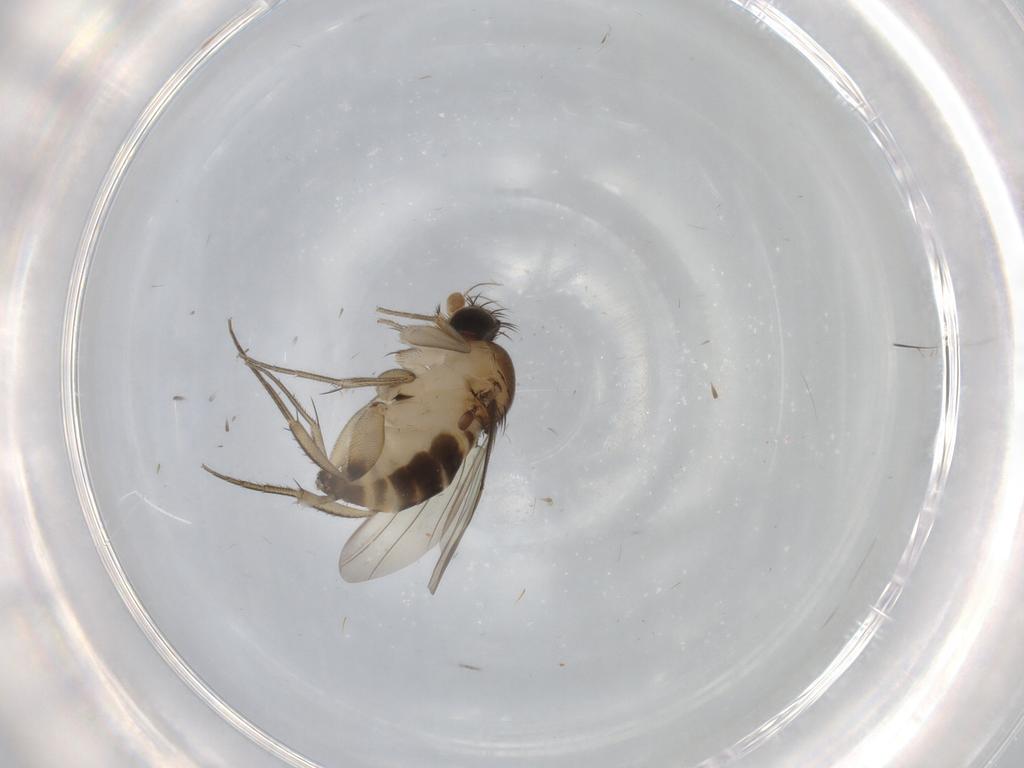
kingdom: Animalia
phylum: Arthropoda
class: Insecta
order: Diptera
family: Phoridae
